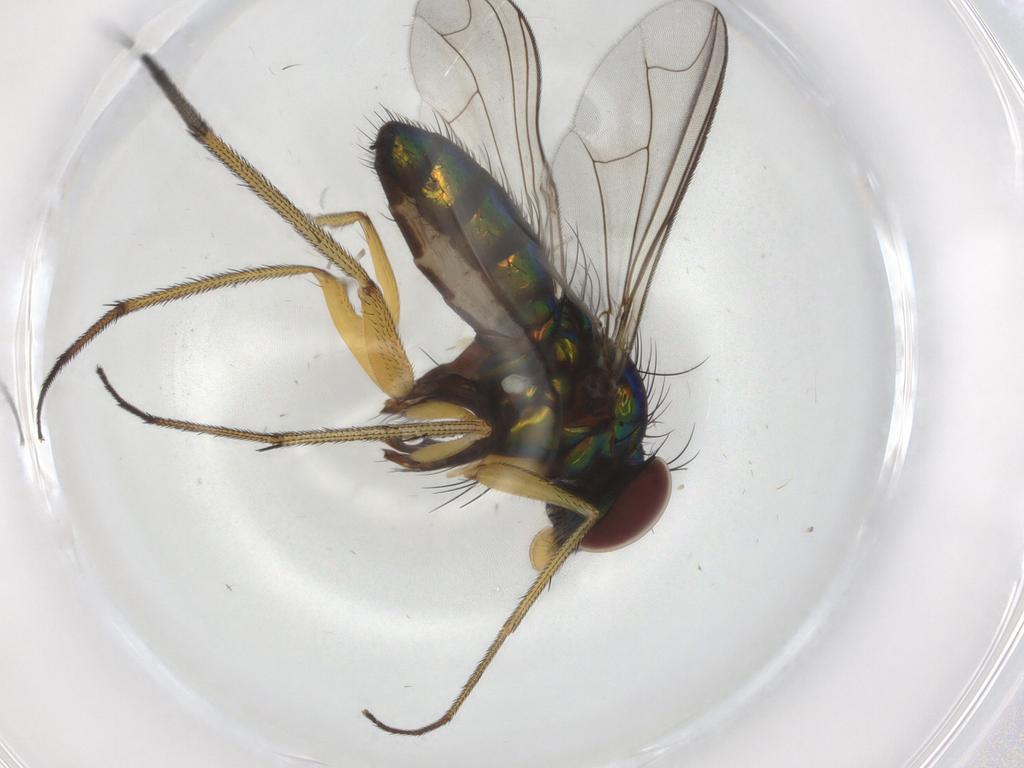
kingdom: Animalia
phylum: Arthropoda
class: Insecta
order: Diptera
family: Dolichopodidae
